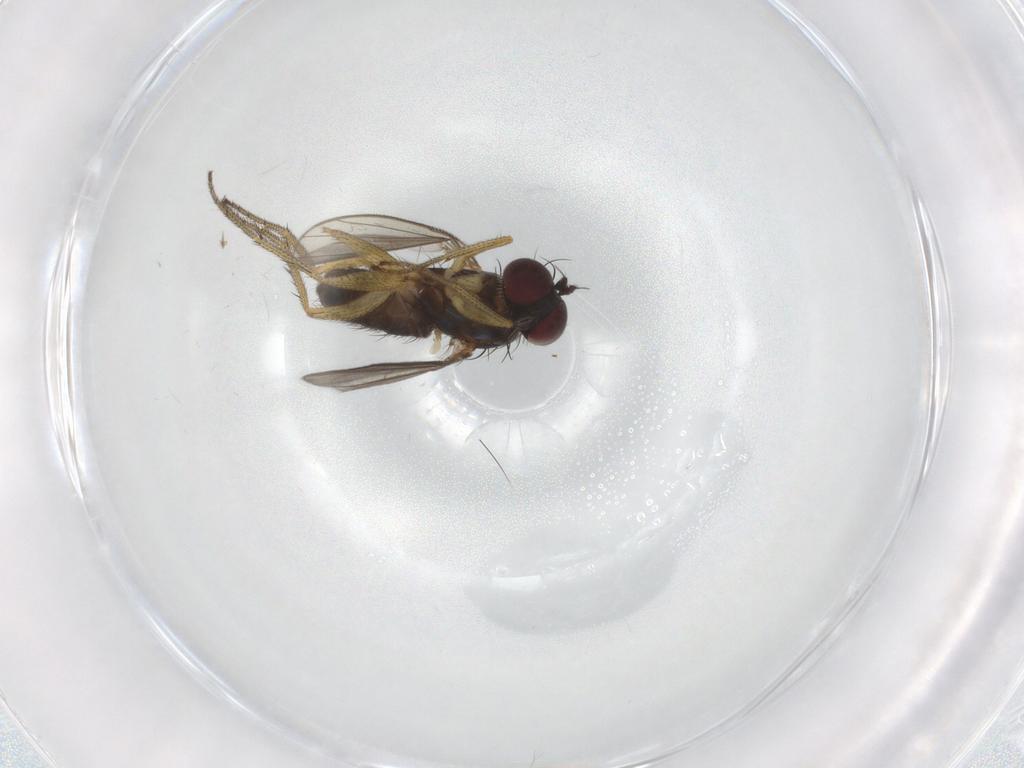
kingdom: Animalia
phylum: Arthropoda
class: Insecta
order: Diptera
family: Dolichopodidae
